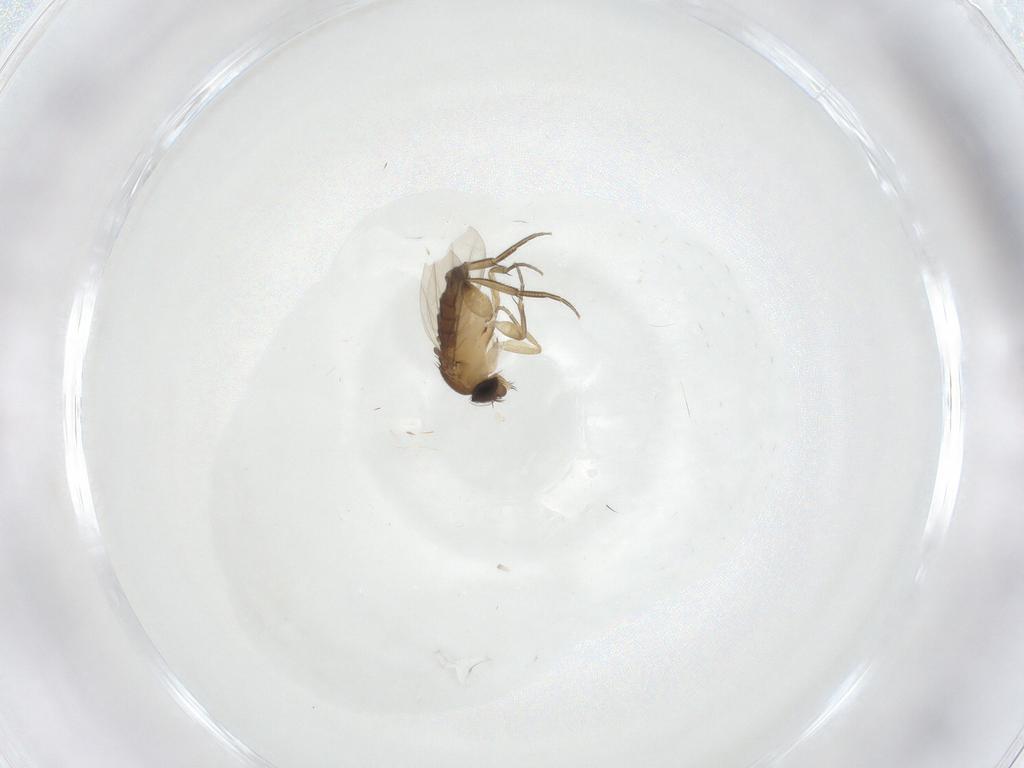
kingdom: Animalia
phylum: Arthropoda
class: Insecta
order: Diptera
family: Phoridae
